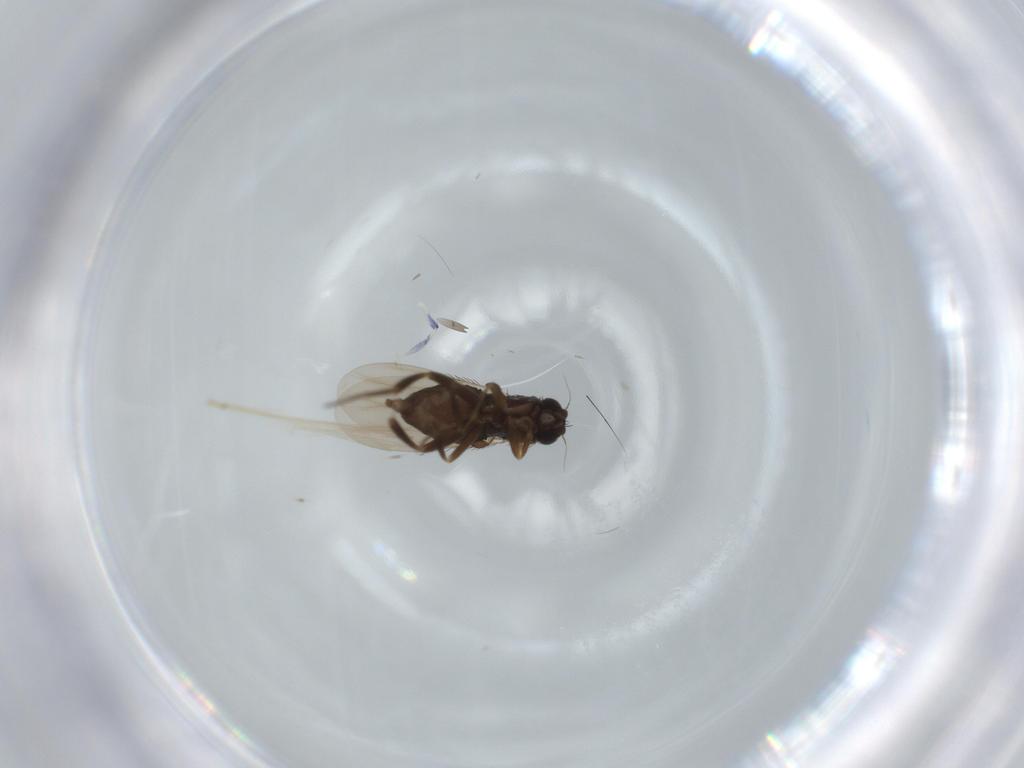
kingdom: Animalia
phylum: Arthropoda
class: Insecta
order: Diptera
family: Phoridae
